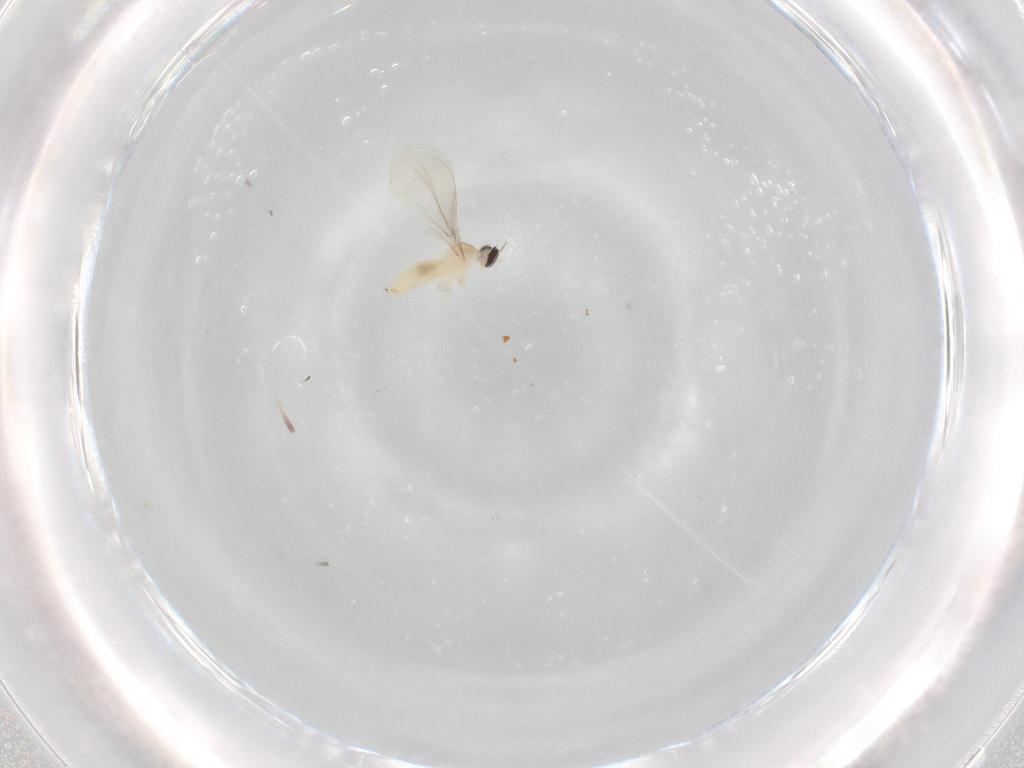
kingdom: Animalia
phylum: Arthropoda
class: Insecta
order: Diptera
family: Cecidomyiidae
